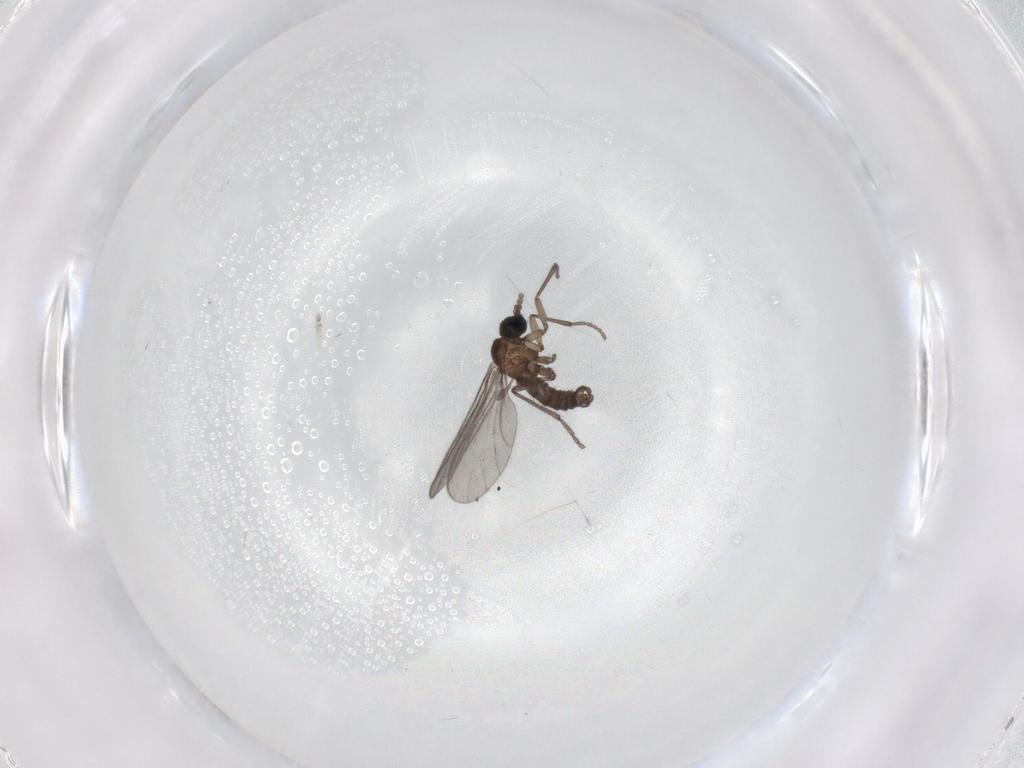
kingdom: Animalia
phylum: Arthropoda
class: Insecta
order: Diptera
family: Sciaridae
